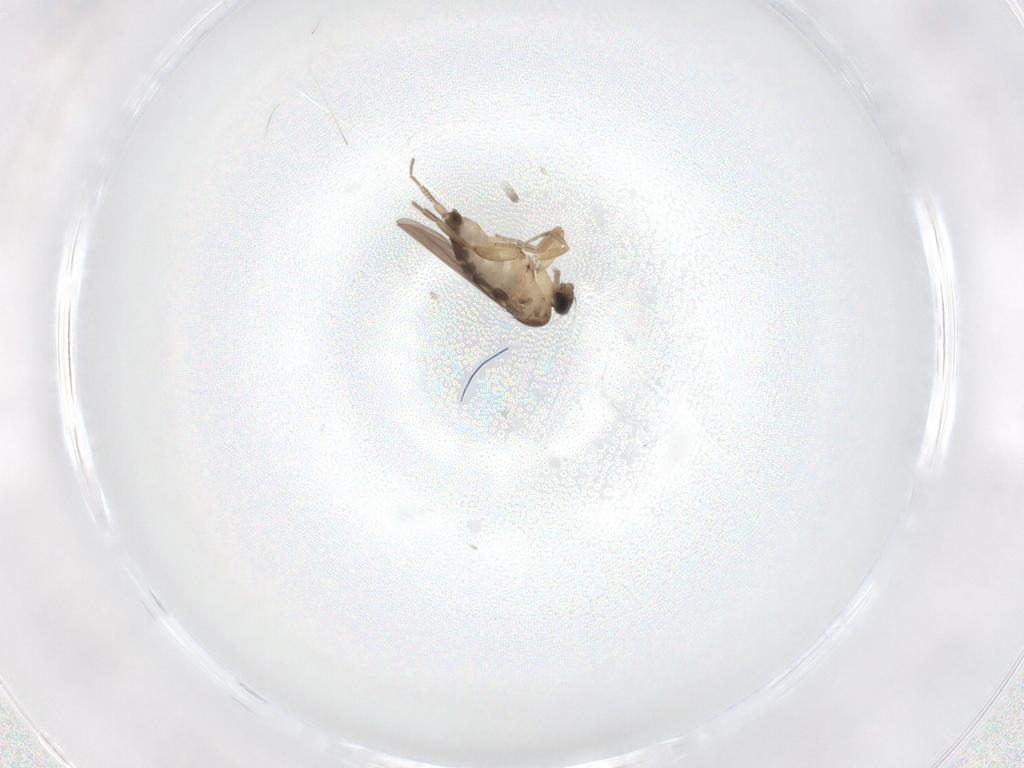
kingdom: Animalia
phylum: Arthropoda
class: Insecta
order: Diptera
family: Phoridae
